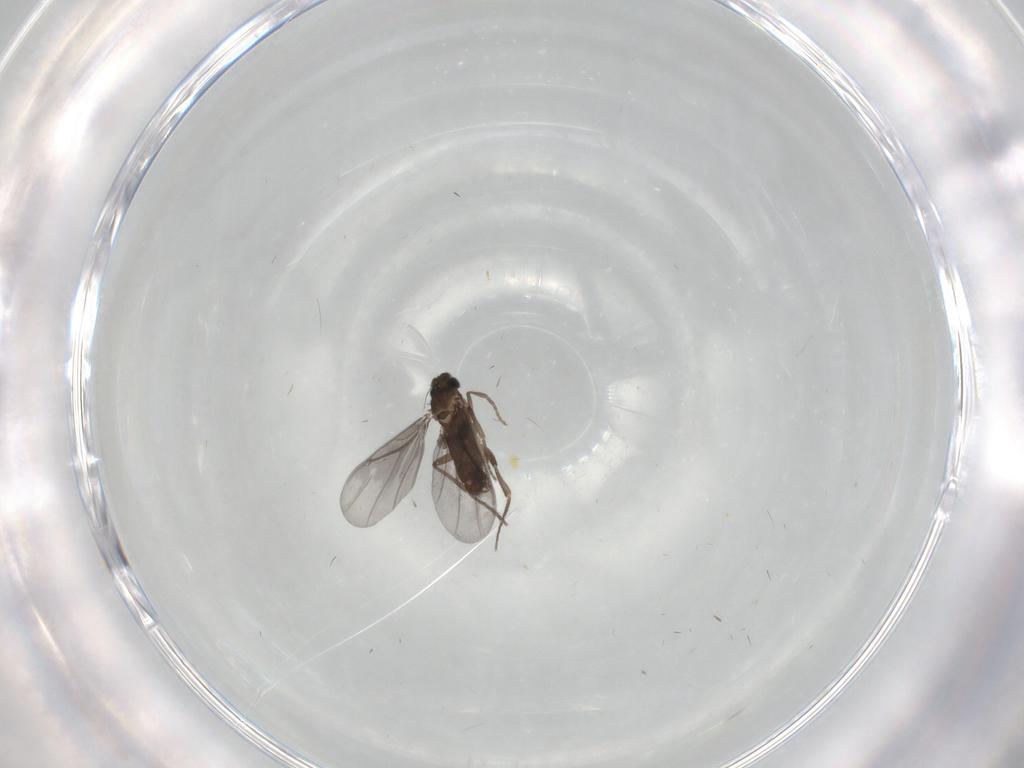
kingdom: Animalia
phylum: Arthropoda
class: Insecta
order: Diptera
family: Phoridae
